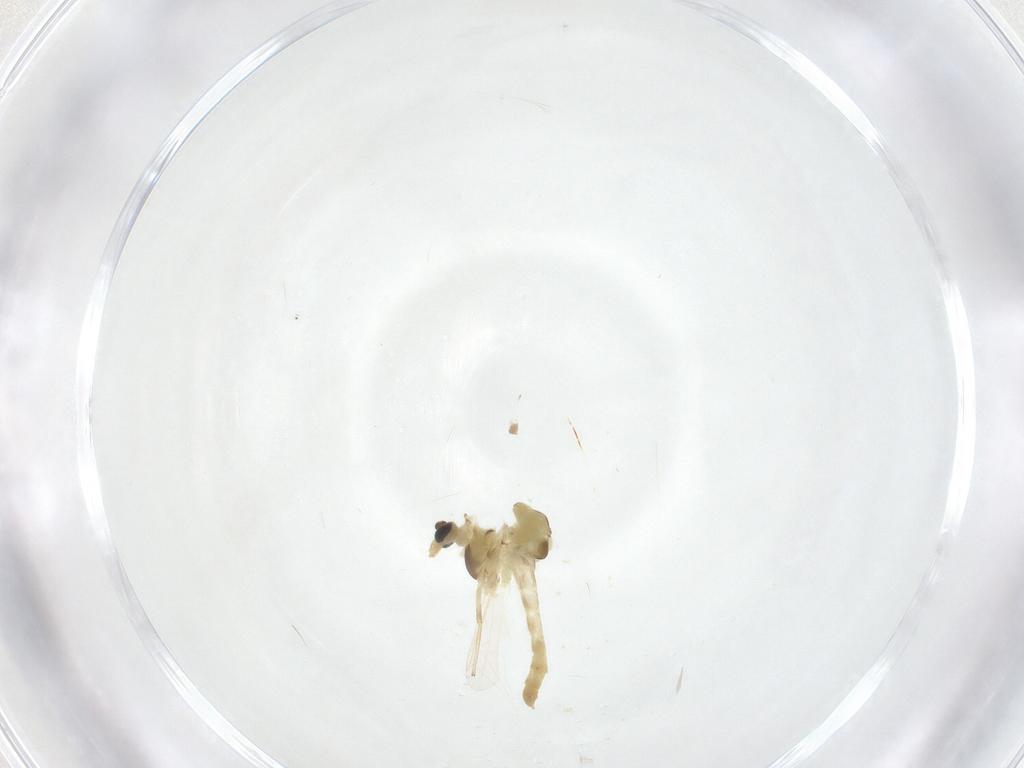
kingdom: Animalia
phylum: Arthropoda
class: Insecta
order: Diptera
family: Chironomidae
